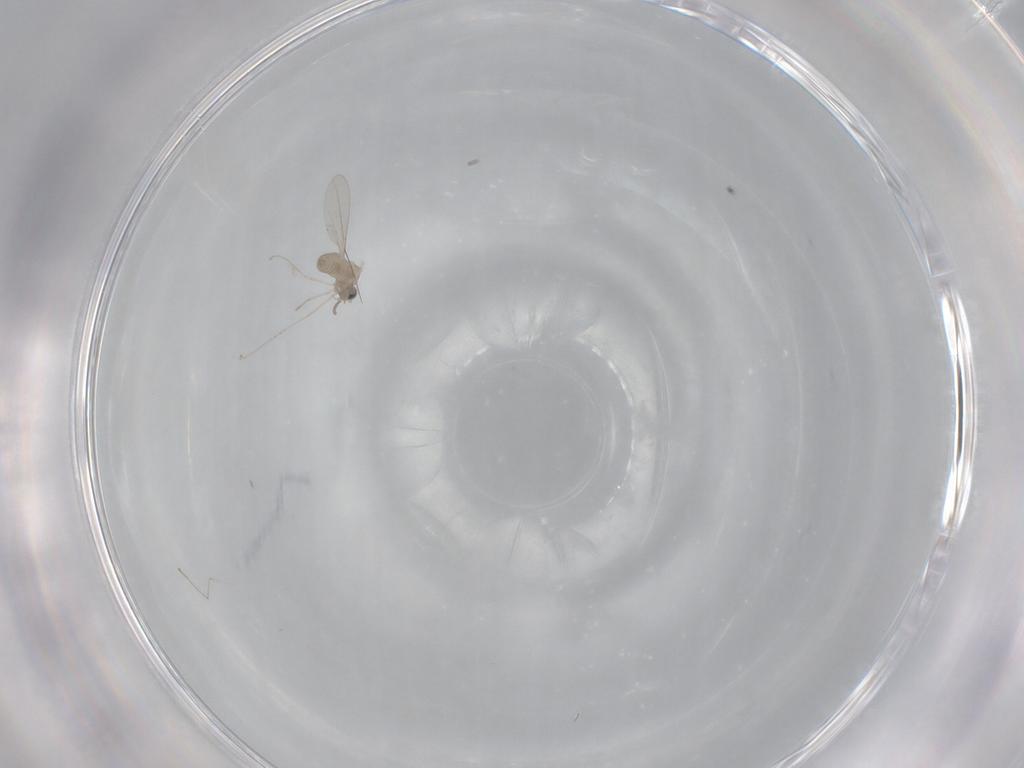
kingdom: Animalia
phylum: Arthropoda
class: Insecta
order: Diptera
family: Cecidomyiidae
